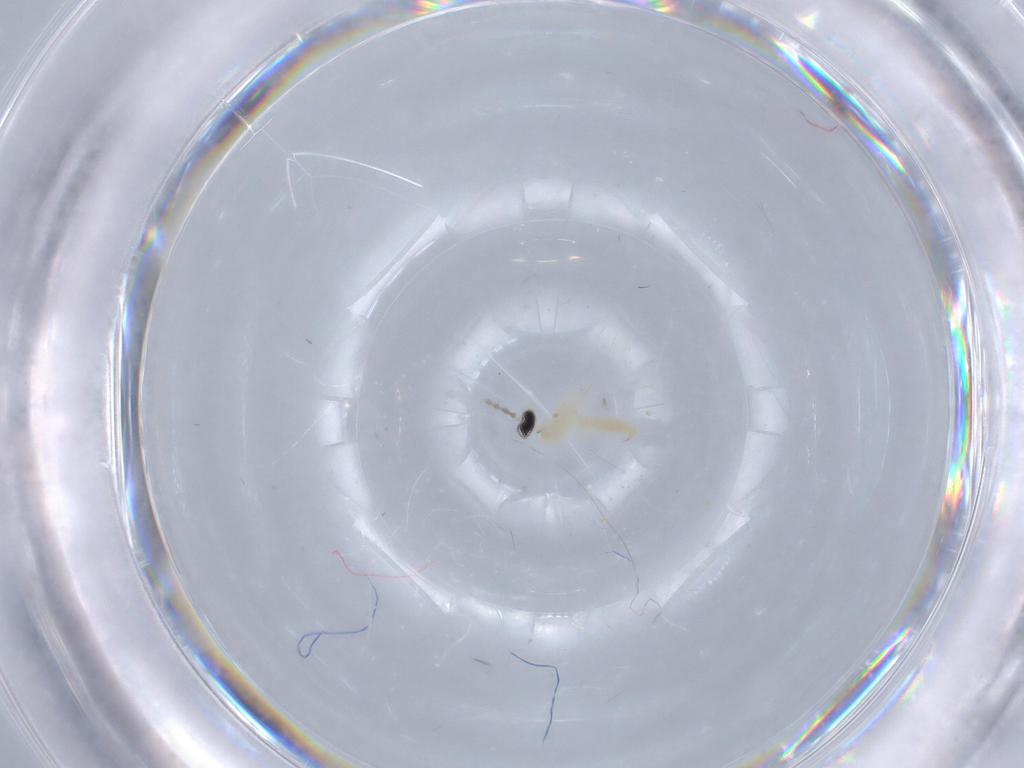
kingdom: Animalia
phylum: Arthropoda
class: Insecta
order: Diptera
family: Cecidomyiidae
